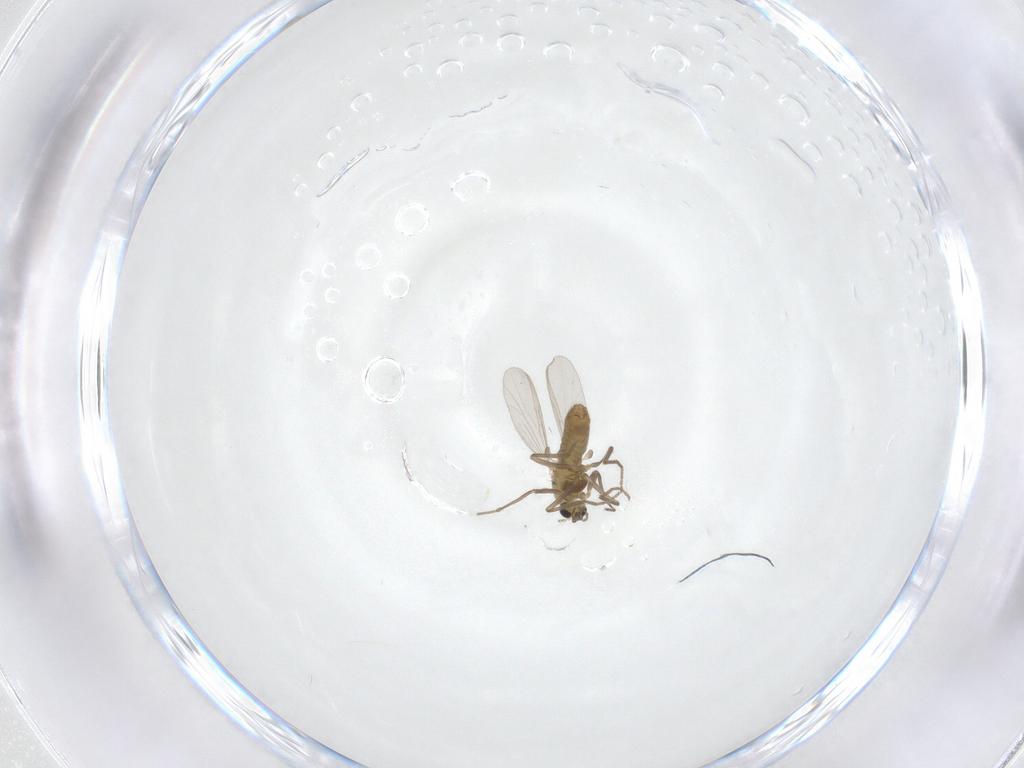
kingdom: Animalia
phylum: Arthropoda
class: Insecta
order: Diptera
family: Chironomidae
